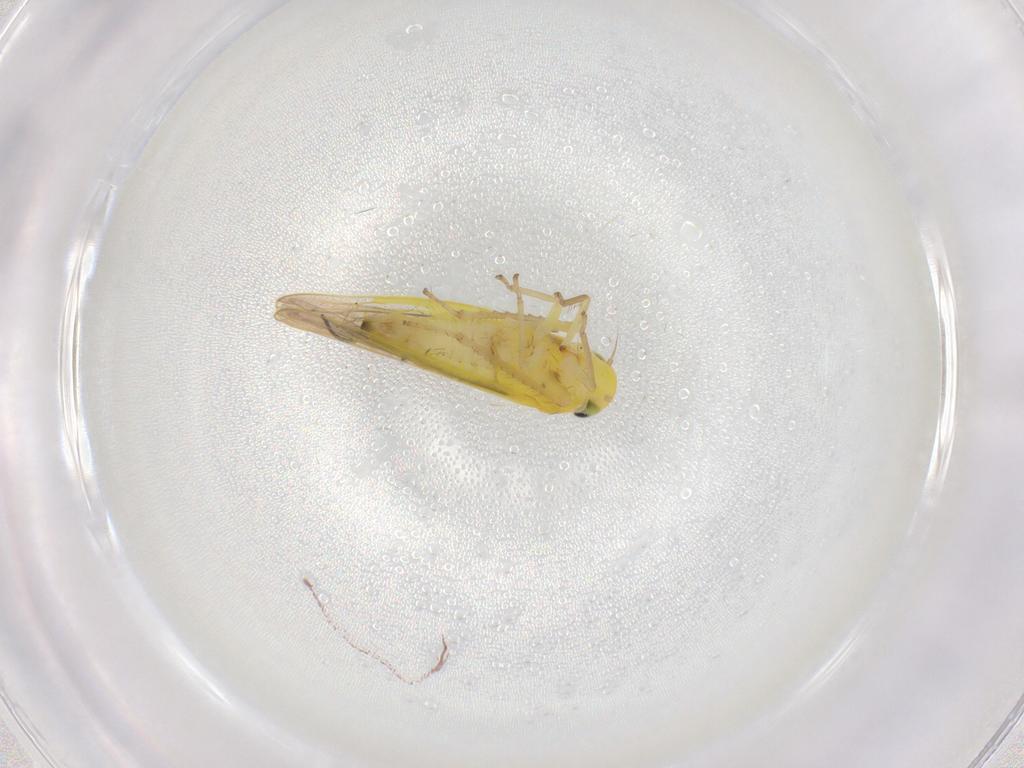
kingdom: Animalia
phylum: Arthropoda
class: Insecta
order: Hemiptera
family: Cicadellidae
